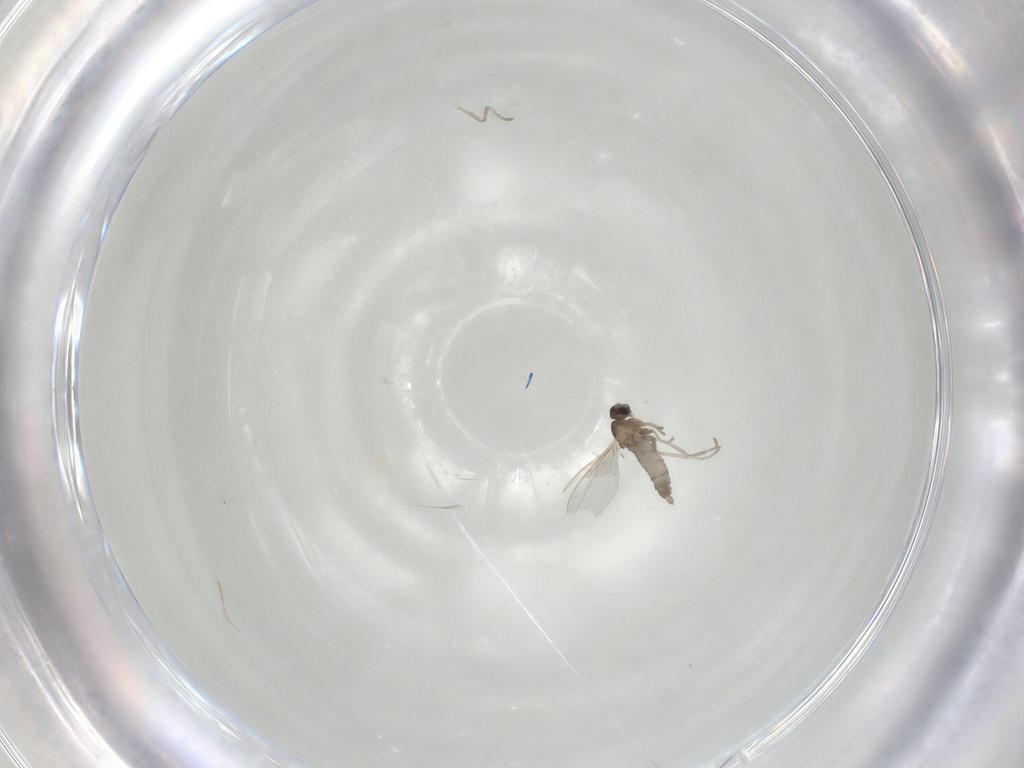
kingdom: Animalia
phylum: Arthropoda
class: Insecta
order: Diptera
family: Cecidomyiidae
